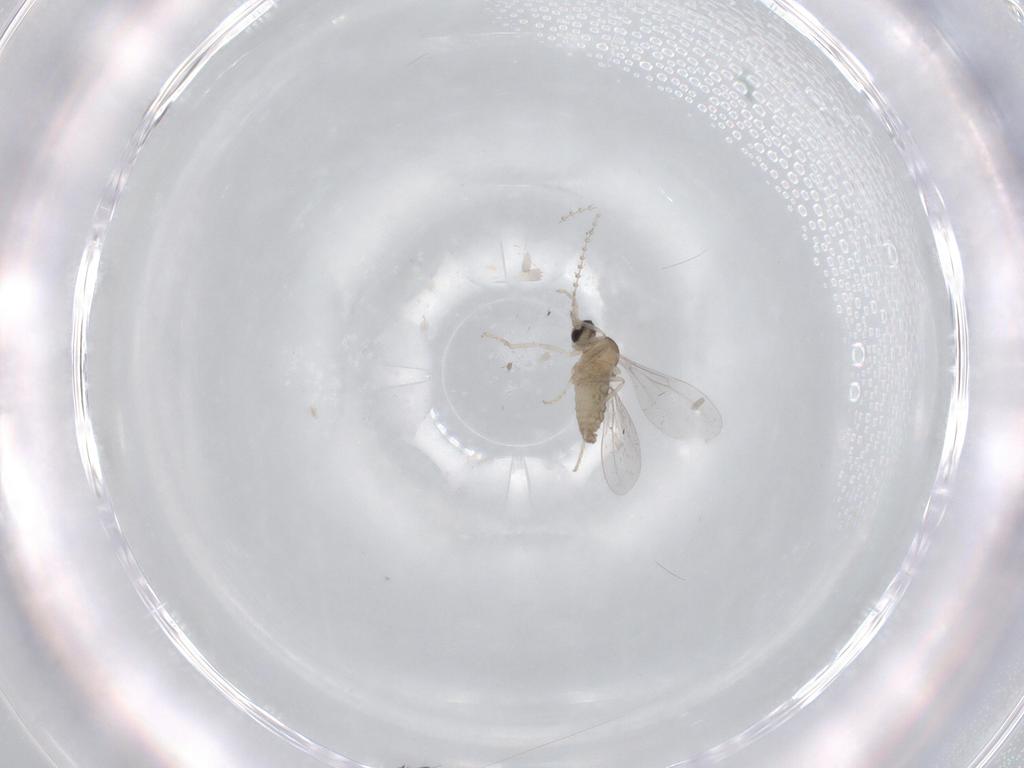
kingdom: Animalia
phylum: Arthropoda
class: Insecta
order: Diptera
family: Cecidomyiidae
